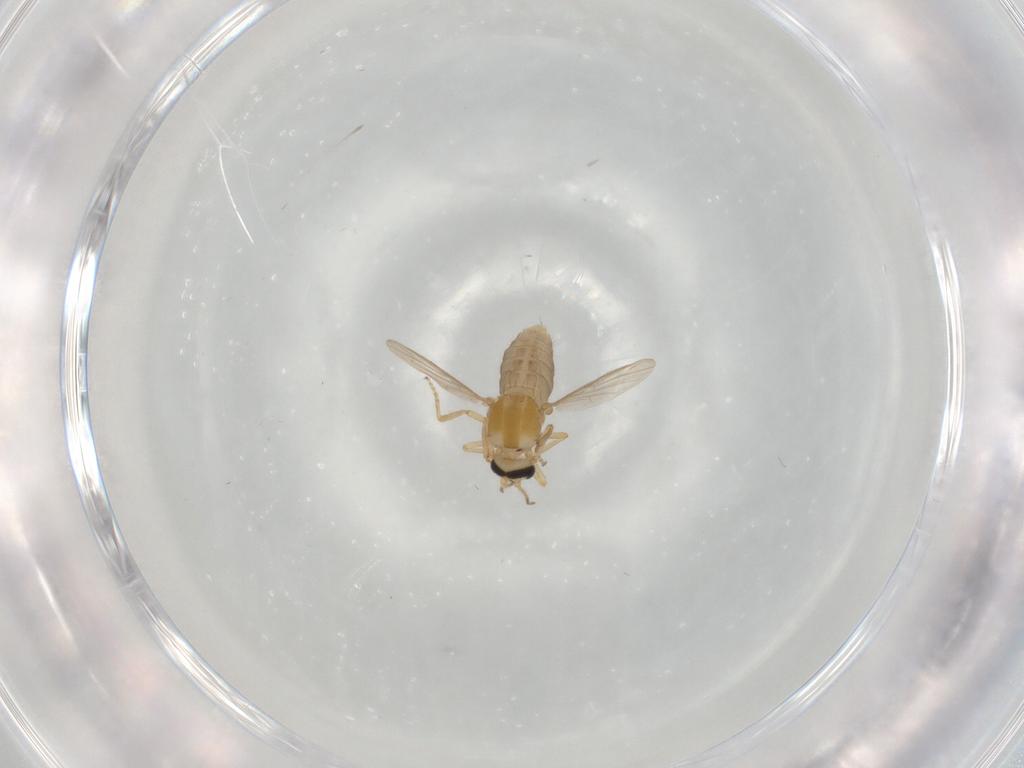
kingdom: Animalia
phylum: Arthropoda
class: Insecta
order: Diptera
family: Ceratopogonidae
